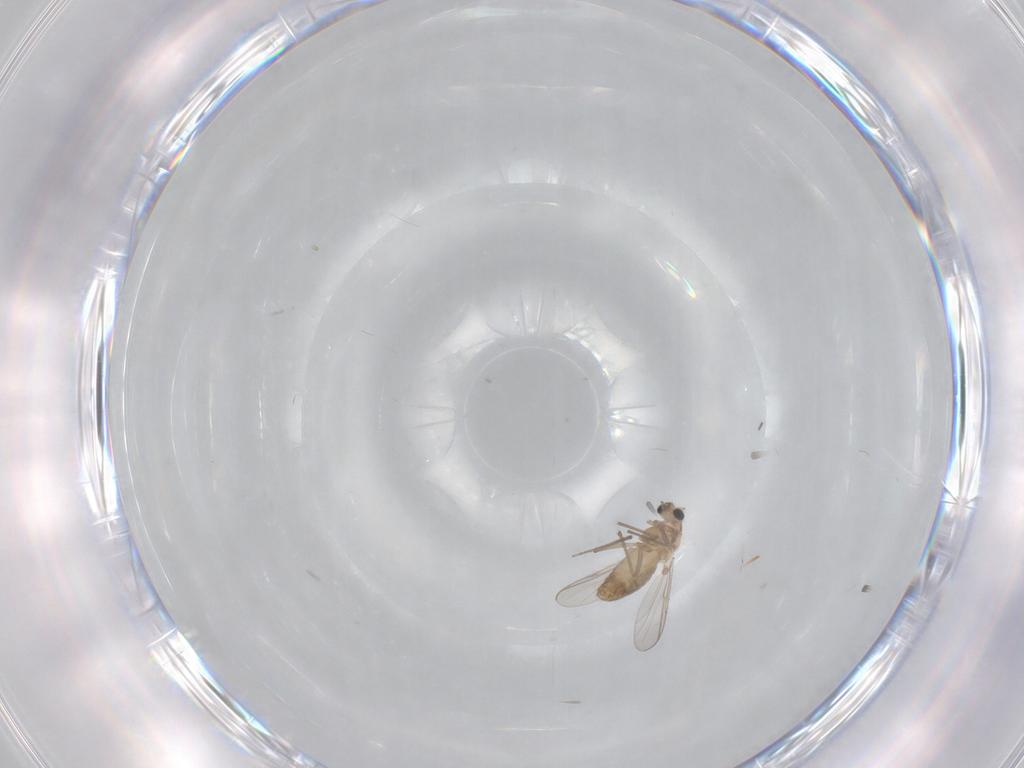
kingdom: Animalia
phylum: Arthropoda
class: Insecta
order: Diptera
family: Chironomidae
